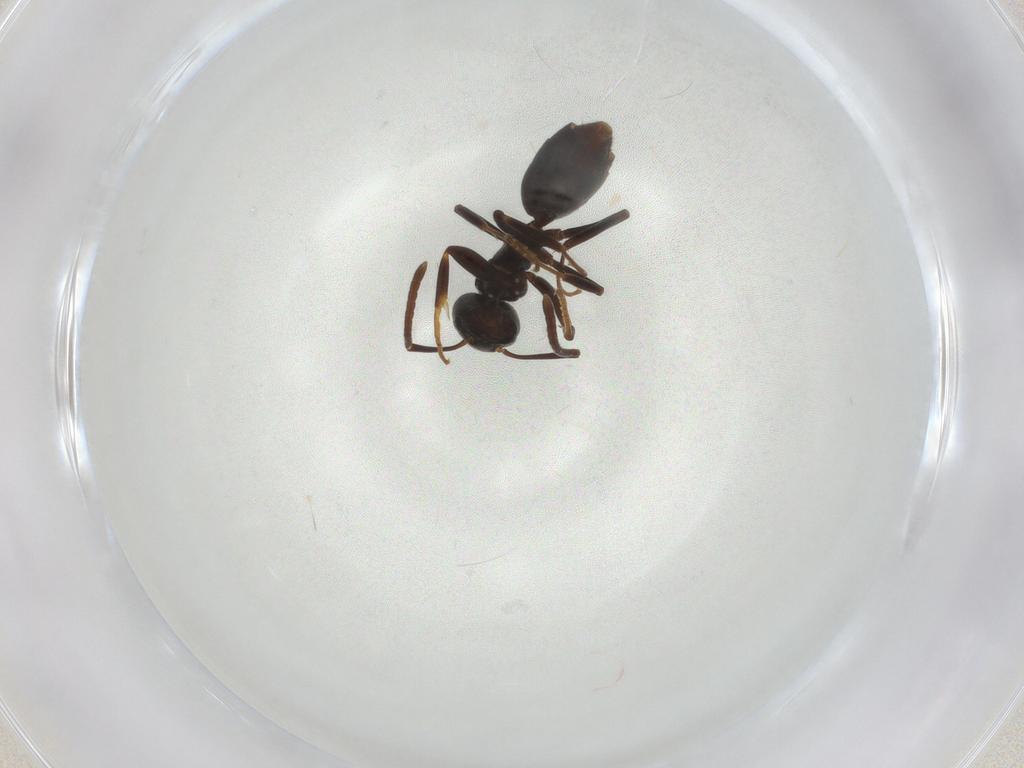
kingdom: Animalia
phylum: Arthropoda
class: Insecta
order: Hymenoptera
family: Formicidae
